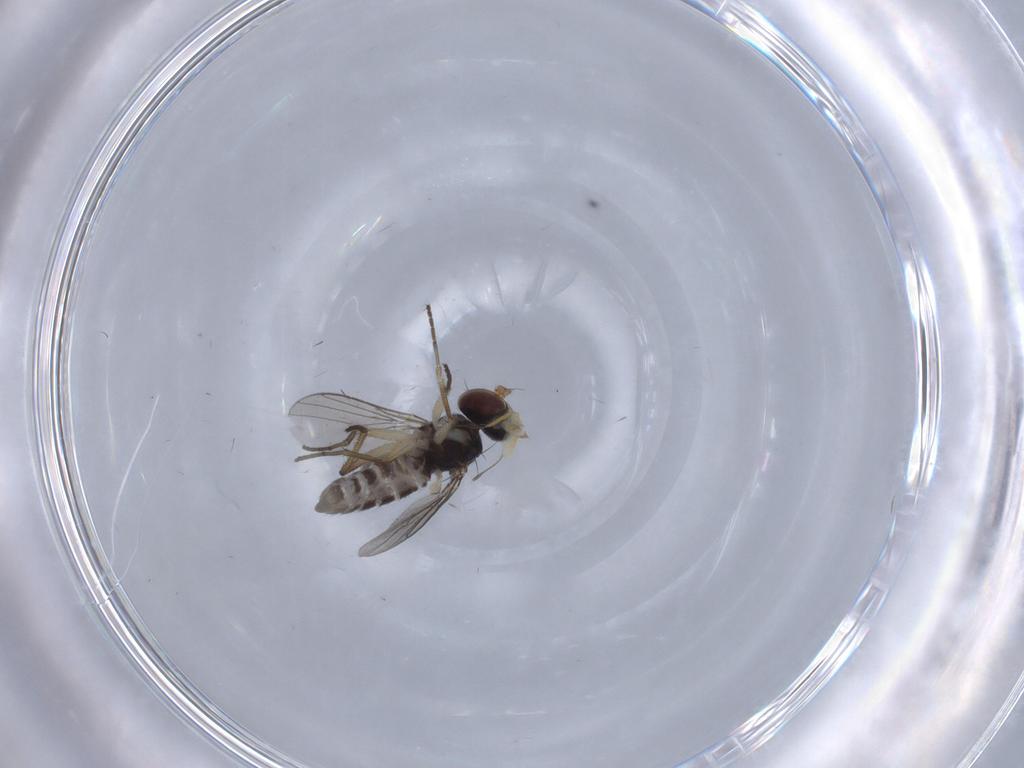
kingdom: Animalia
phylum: Arthropoda
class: Insecta
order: Diptera
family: Dolichopodidae
